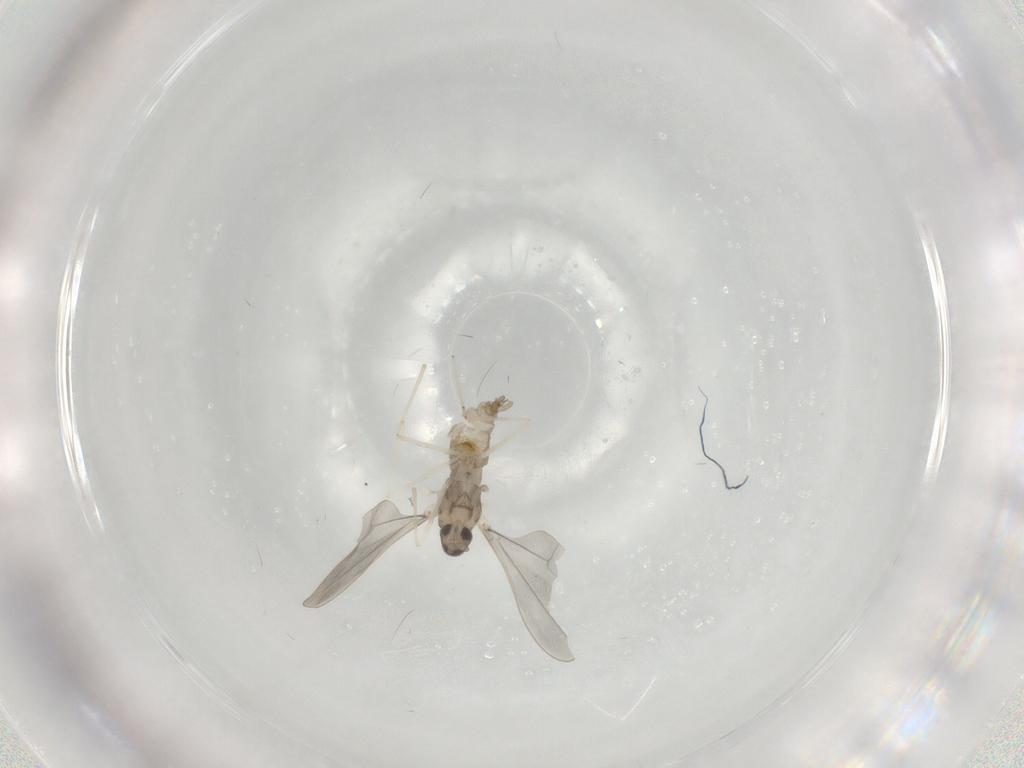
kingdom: Animalia
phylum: Arthropoda
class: Insecta
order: Diptera
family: Cecidomyiidae
